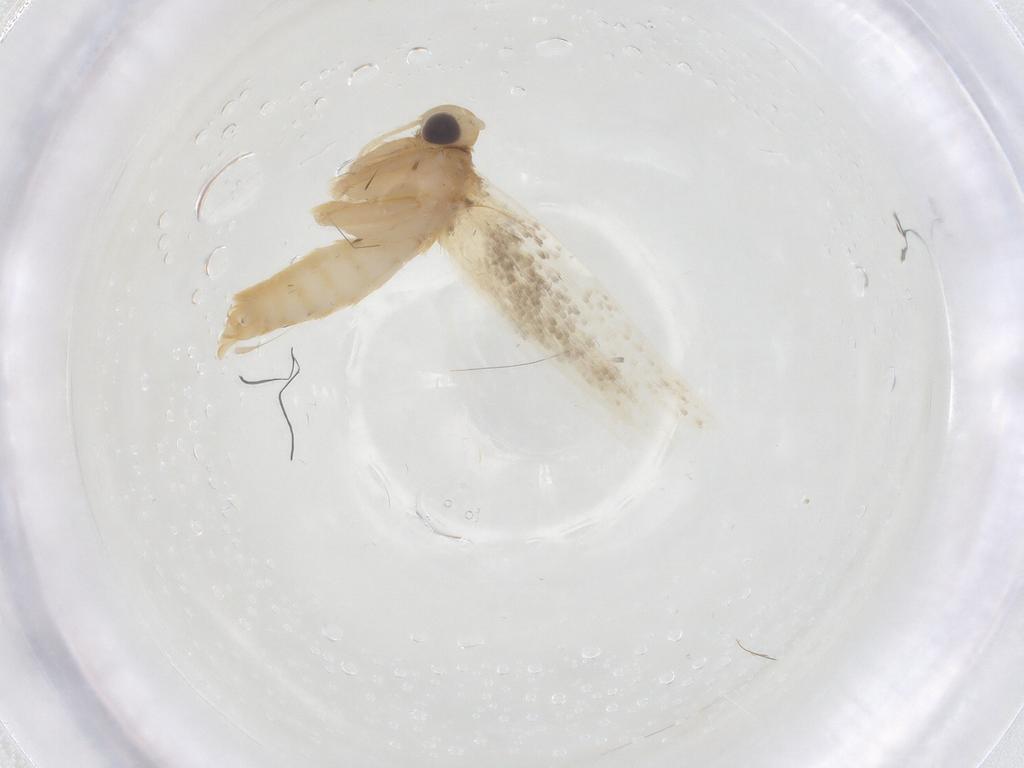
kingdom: Animalia
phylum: Arthropoda
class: Insecta
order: Lepidoptera
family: Erebidae
